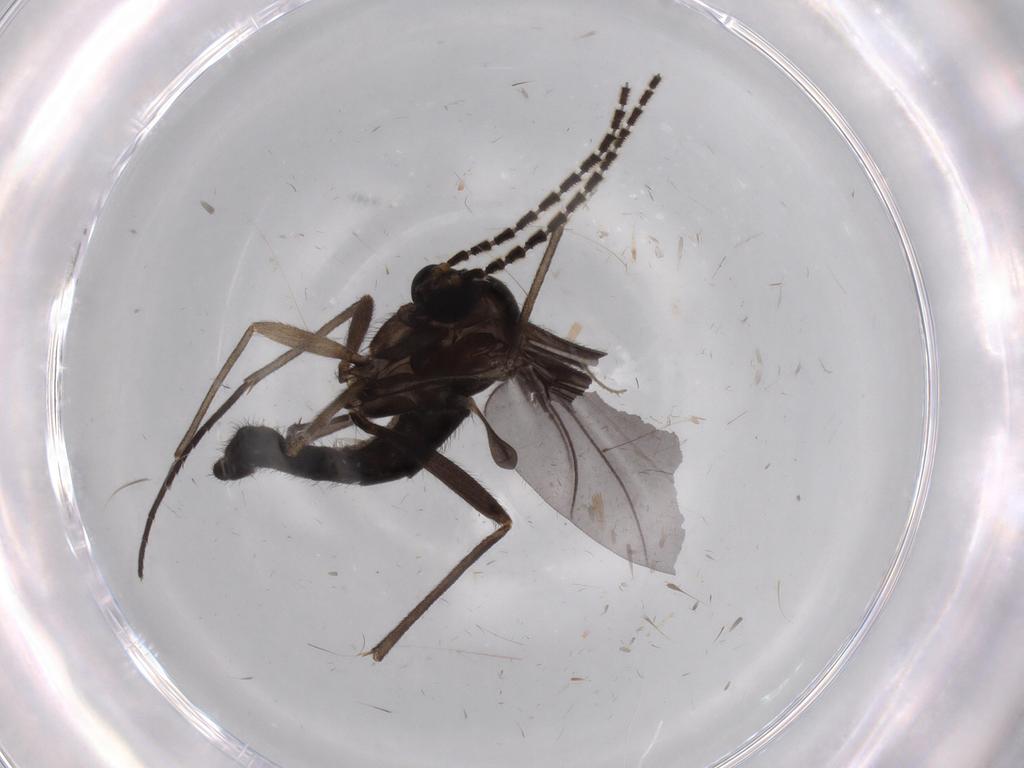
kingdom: Animalia
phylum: Arthropoda
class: Insecta
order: Diptera
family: Sciaridae
